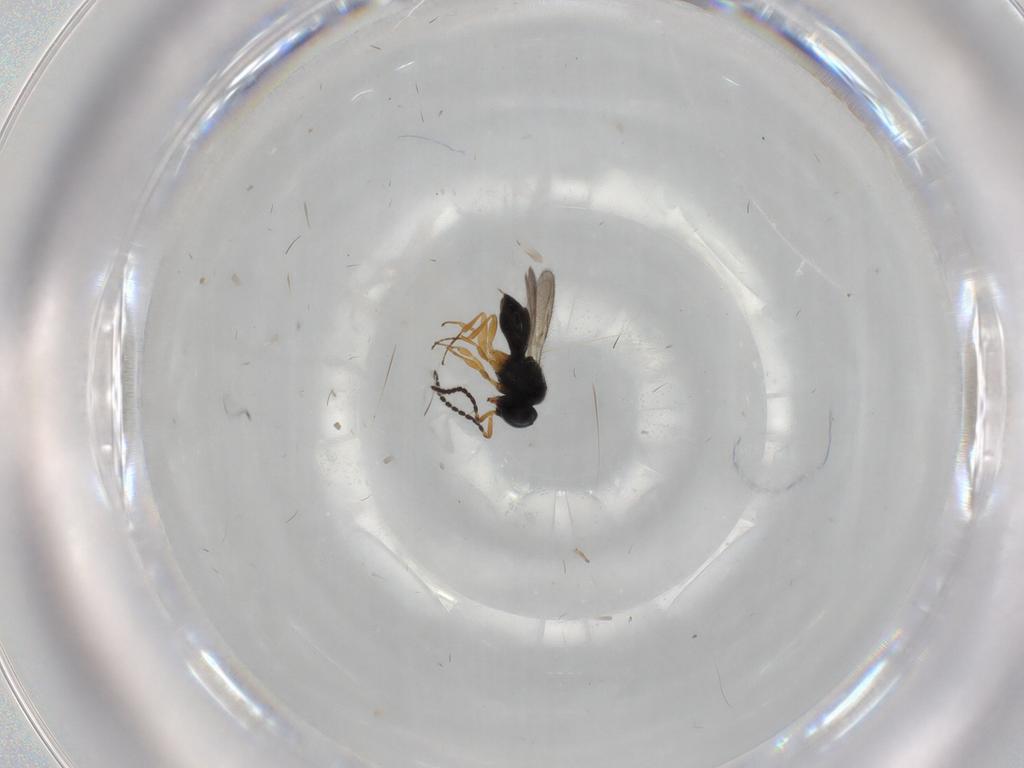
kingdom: Animalia
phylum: Arthropoda
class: Insecta
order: Hymenoptera
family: Scelionidae
